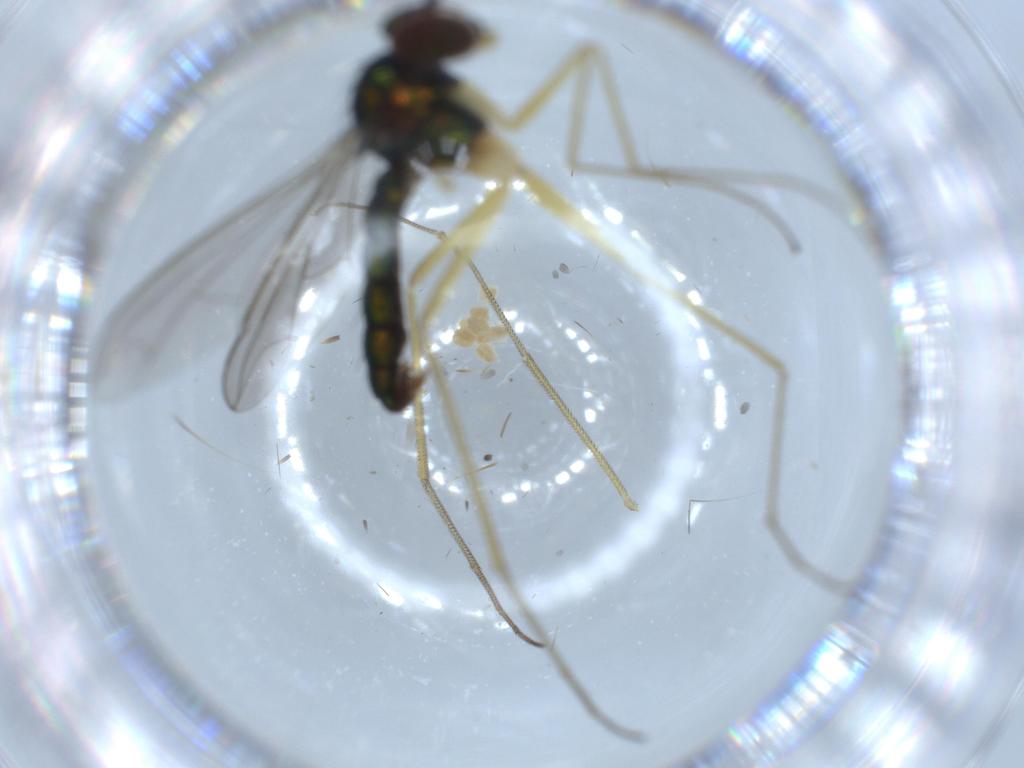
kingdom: Animalia
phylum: Arthropoda
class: Insecta
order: Diptera
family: Dolichopodidae
